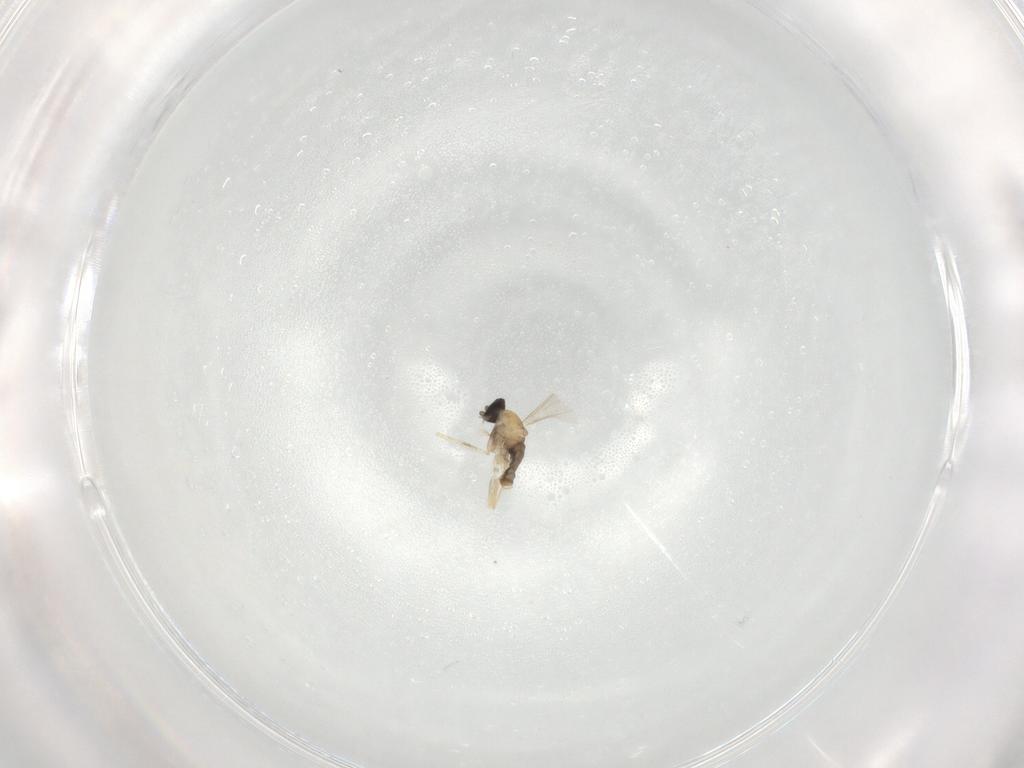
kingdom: Animalia
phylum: Arthropoda
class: Insecta
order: Diptera
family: Cecidomyiidae
